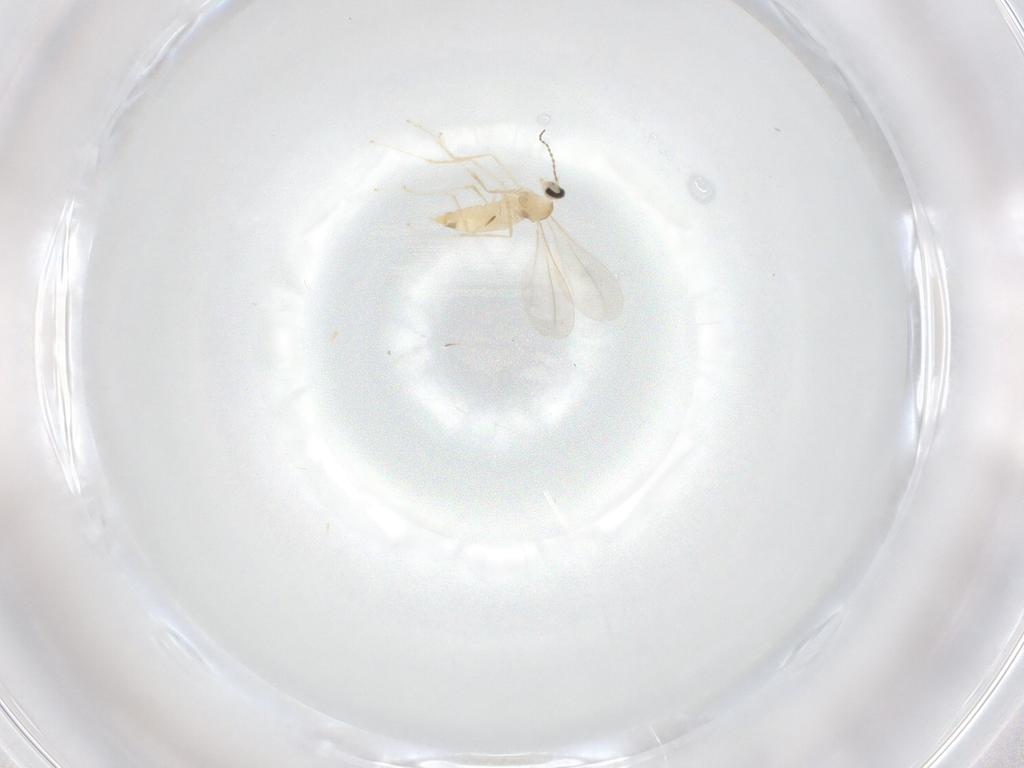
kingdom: Animalia
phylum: Arthropoda
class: Insecta
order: Diptera
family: Cecidomyiidae
